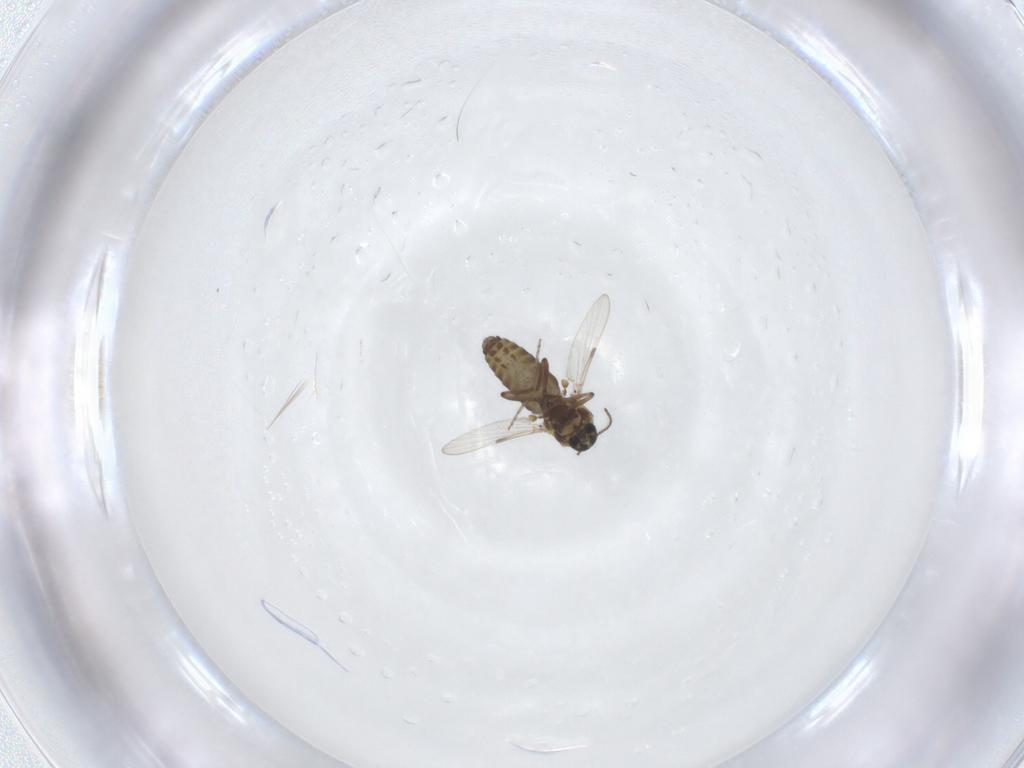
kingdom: Animalia
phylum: Arthropoda
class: Insecta
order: Diptera
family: Ceratopogonidae
